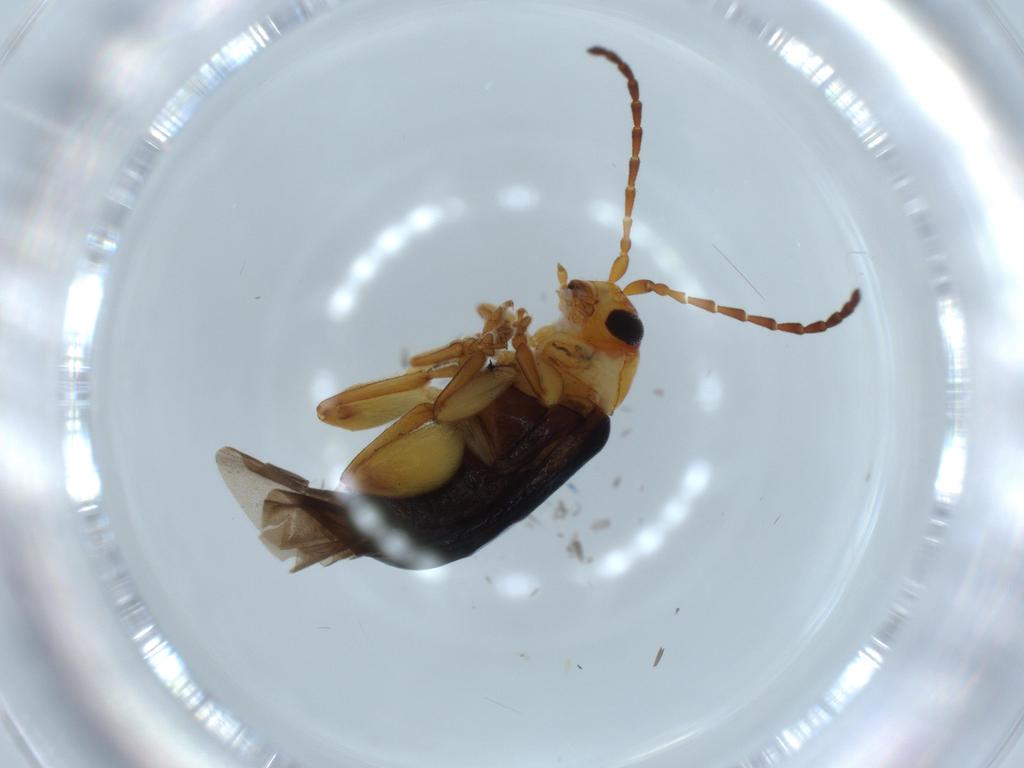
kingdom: Animalia
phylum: Arthropoda
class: Insecta
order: Coleoptera
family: Chrysomelidae
